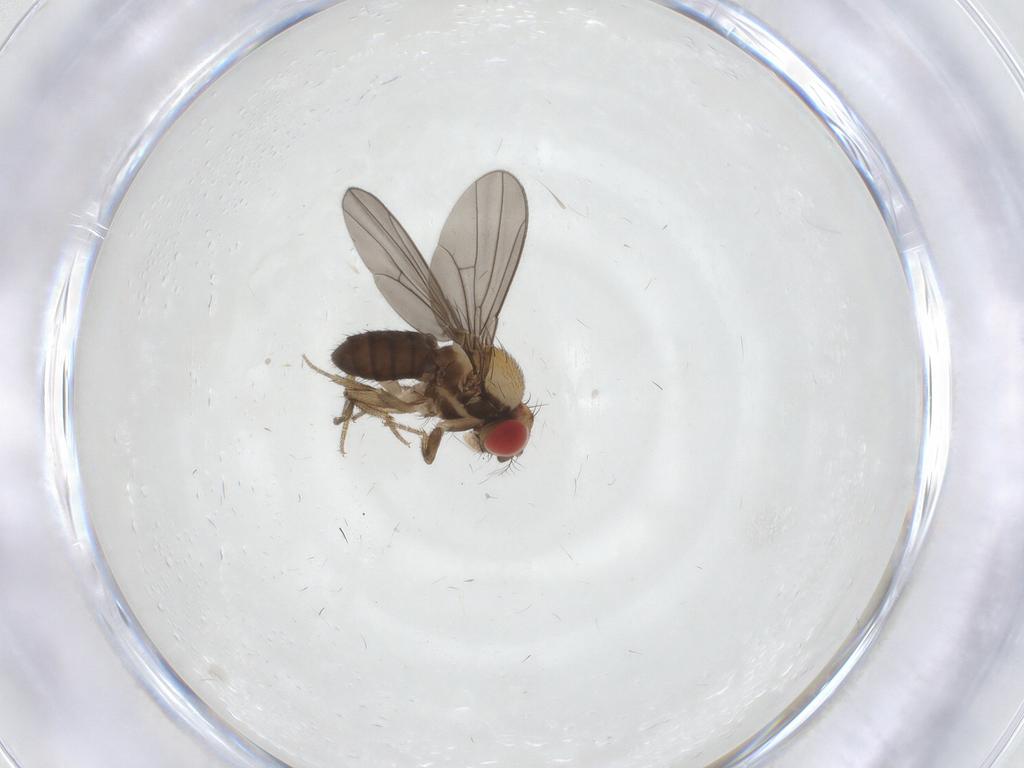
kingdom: Animalia
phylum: Arthropoda
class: Insecta
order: Diptera
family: Drosophilidae
